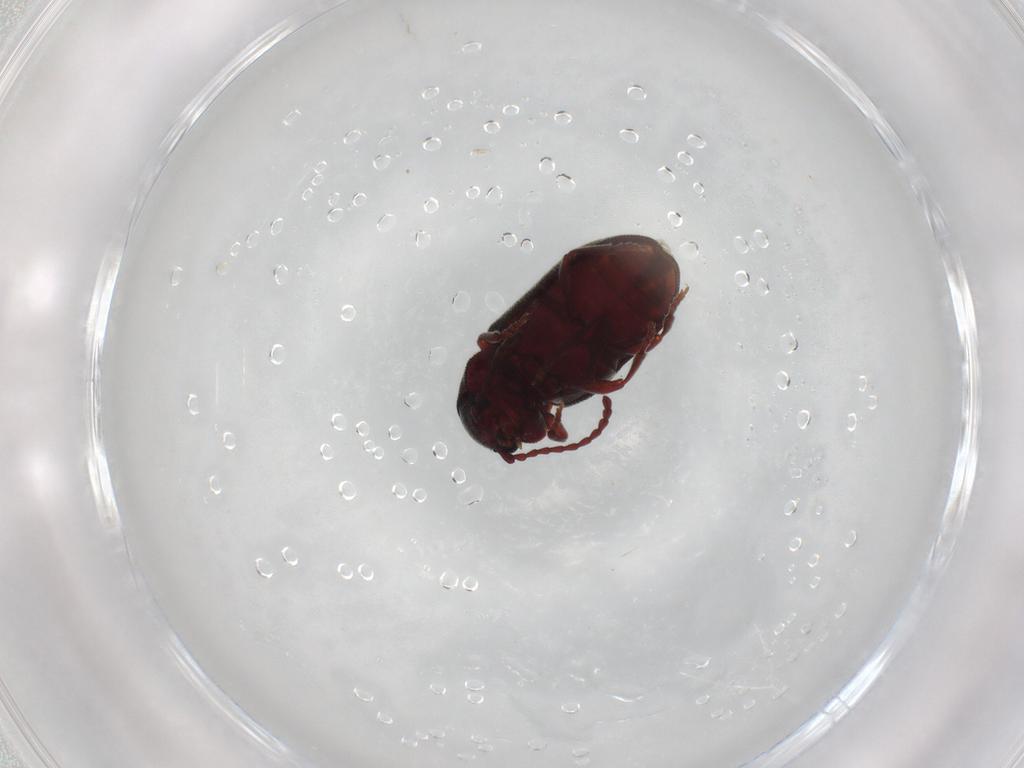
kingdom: Animalia
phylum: Arthropoda
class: Insecta
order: Coleoptera
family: Ptinidae
